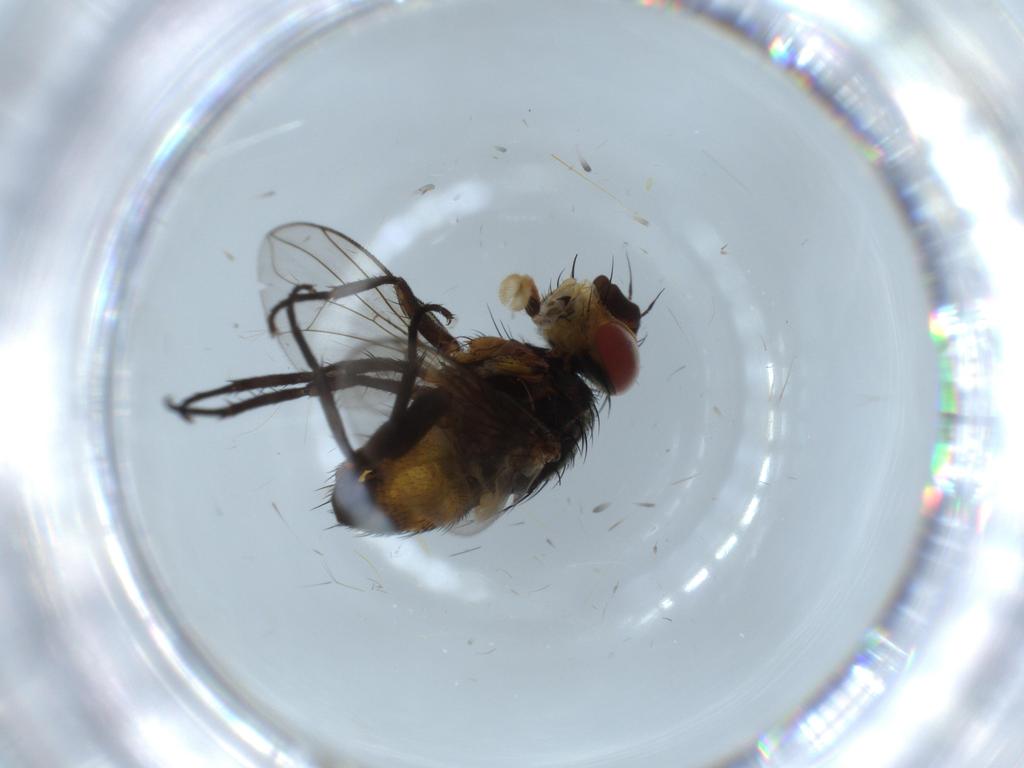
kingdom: Animalia
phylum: Arthropoda
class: Insecta
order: Diptera
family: Tachinidae
